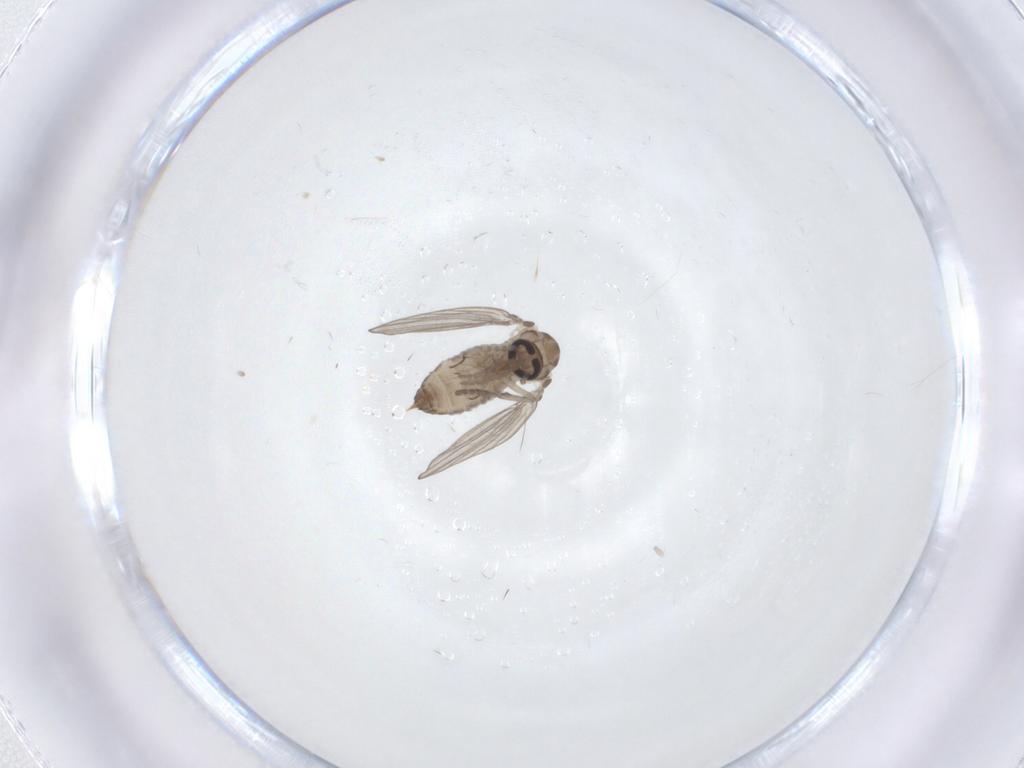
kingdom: Animalia
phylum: Arthropoda
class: Insecta
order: Diptera
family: Psychodidae
